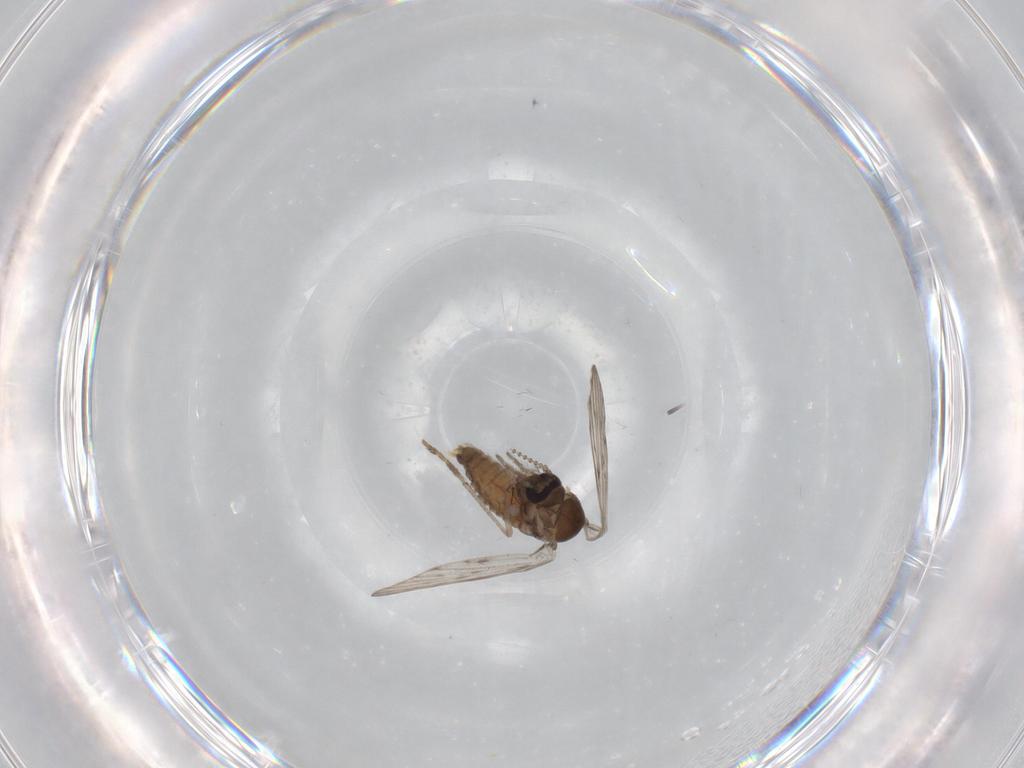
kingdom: Animalia
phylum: Arthropoda
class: Insecta
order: Diptera
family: Psychodidae
